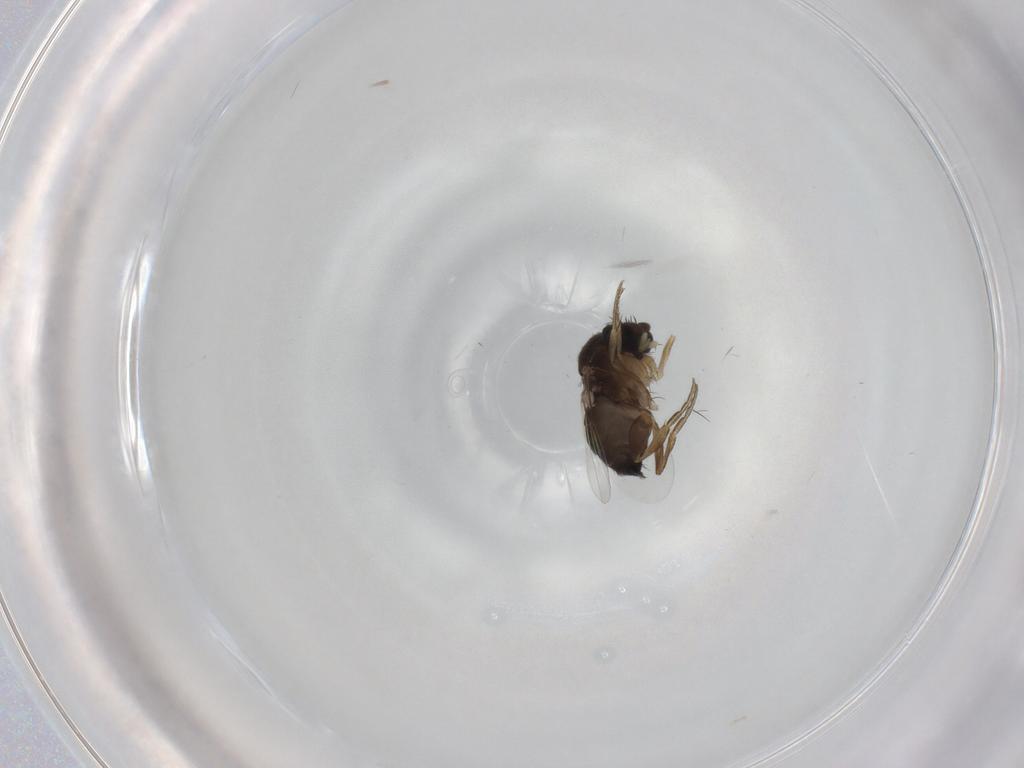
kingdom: Animalia
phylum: Arthropoda
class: Insecta
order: Diptera
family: Phoridae
